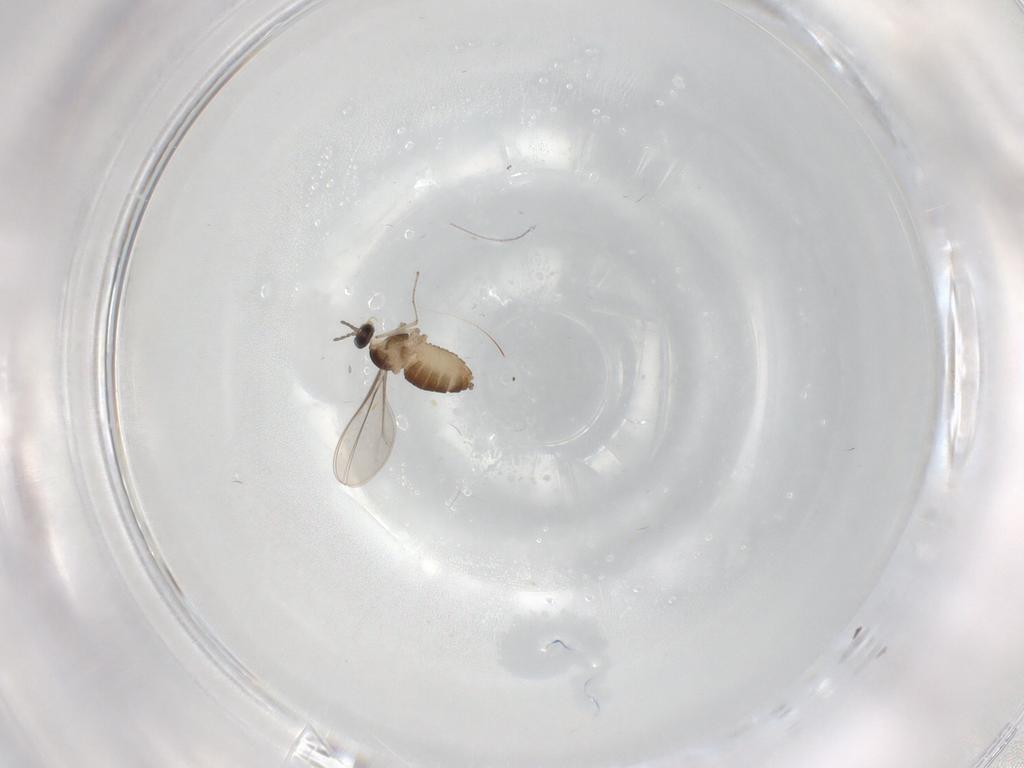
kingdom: Animalia
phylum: Arthropoda
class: Insecta
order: Diptera
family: Cecidomyiidae
